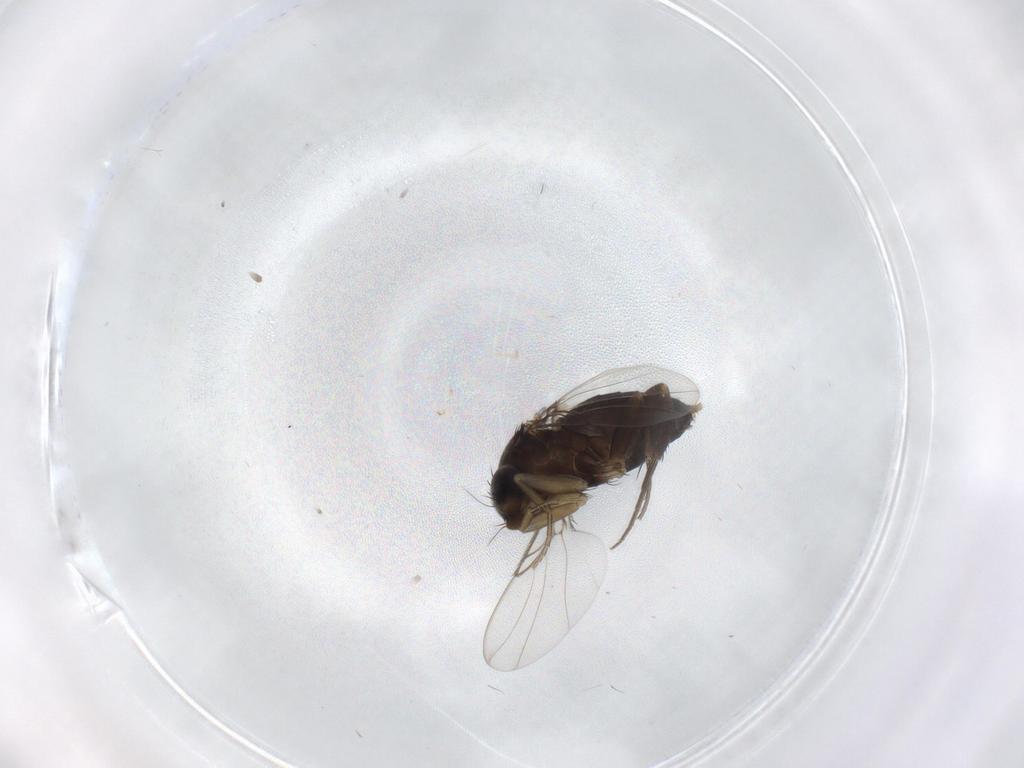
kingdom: Animalia
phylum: Arthropoda
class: Insecta
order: Diptera
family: Phoridae
